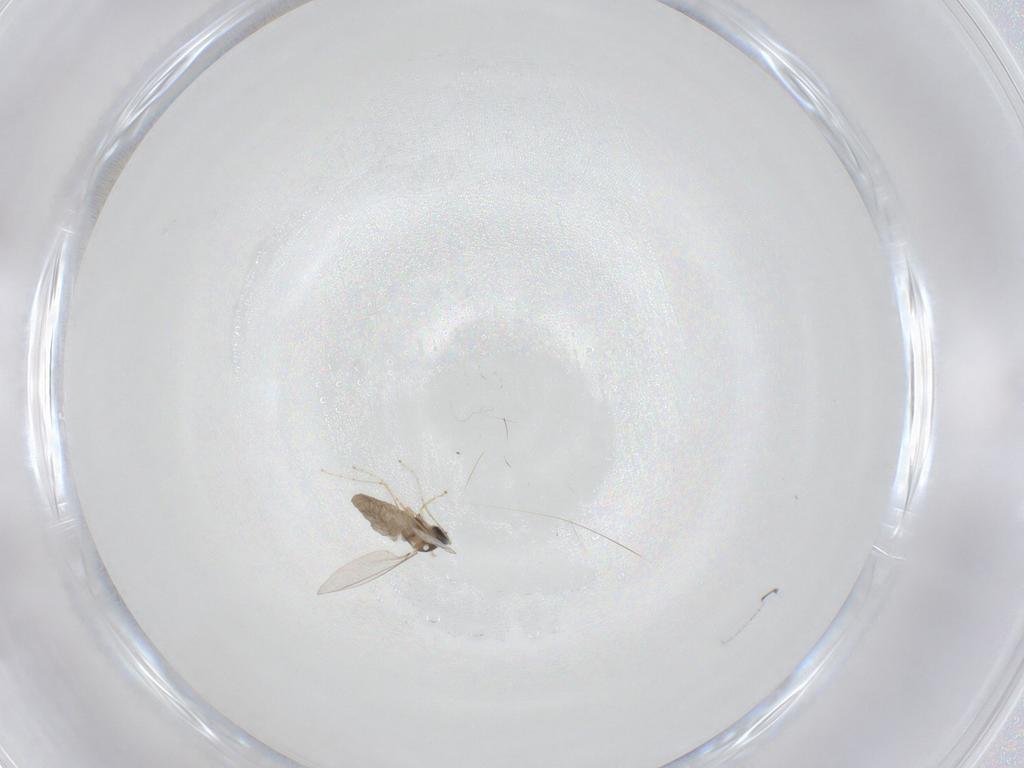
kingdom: Animalia
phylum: Arthropoda
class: Insecta
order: Diptera
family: Cecidomyiidae
